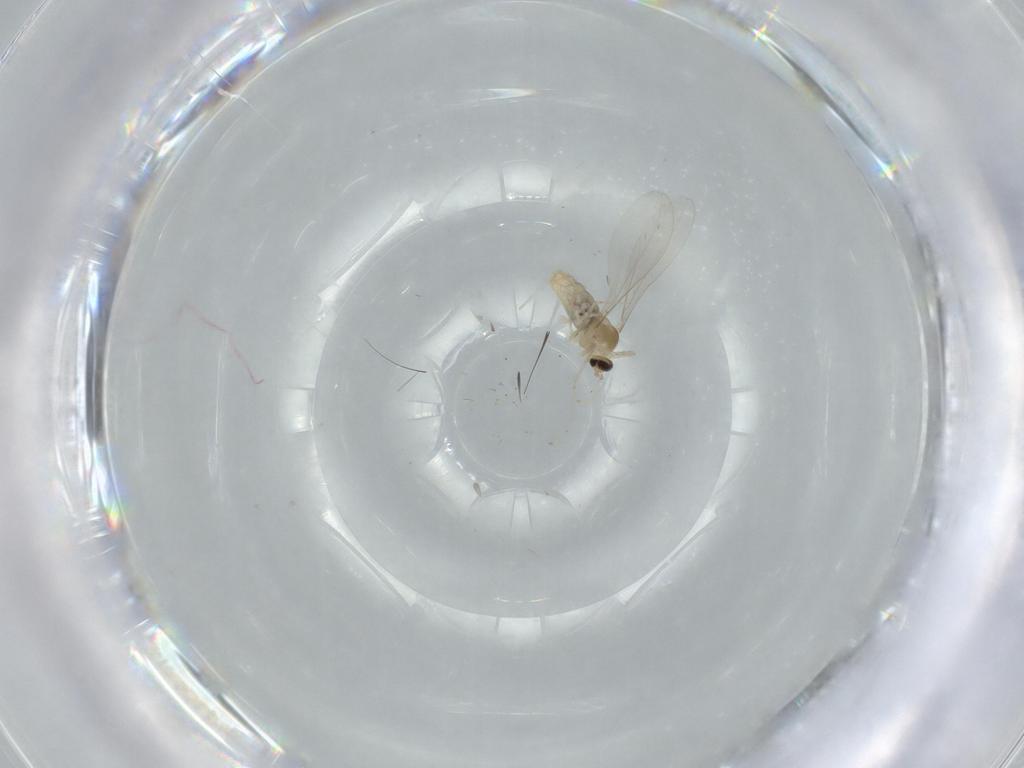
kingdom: Animalia
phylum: Arthropoda
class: Insecta
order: Diptera
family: Cecidomyiidae
